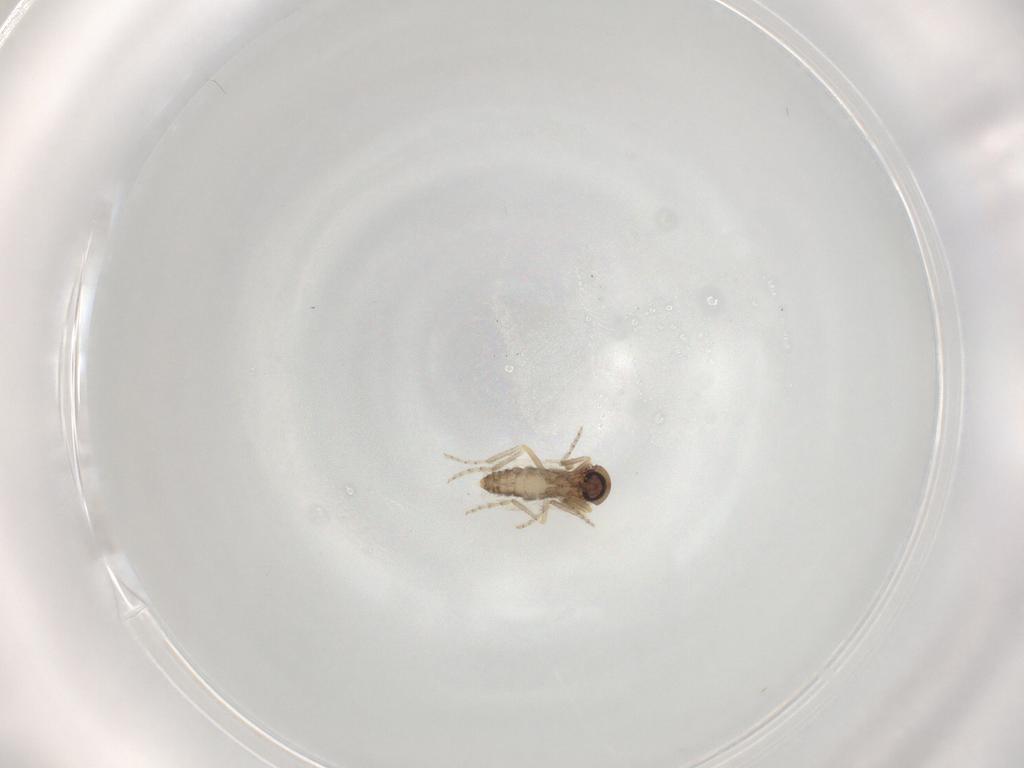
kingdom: Animalia
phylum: Arthropoda
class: Insecta
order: Diptera
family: Ceratopogonidae
